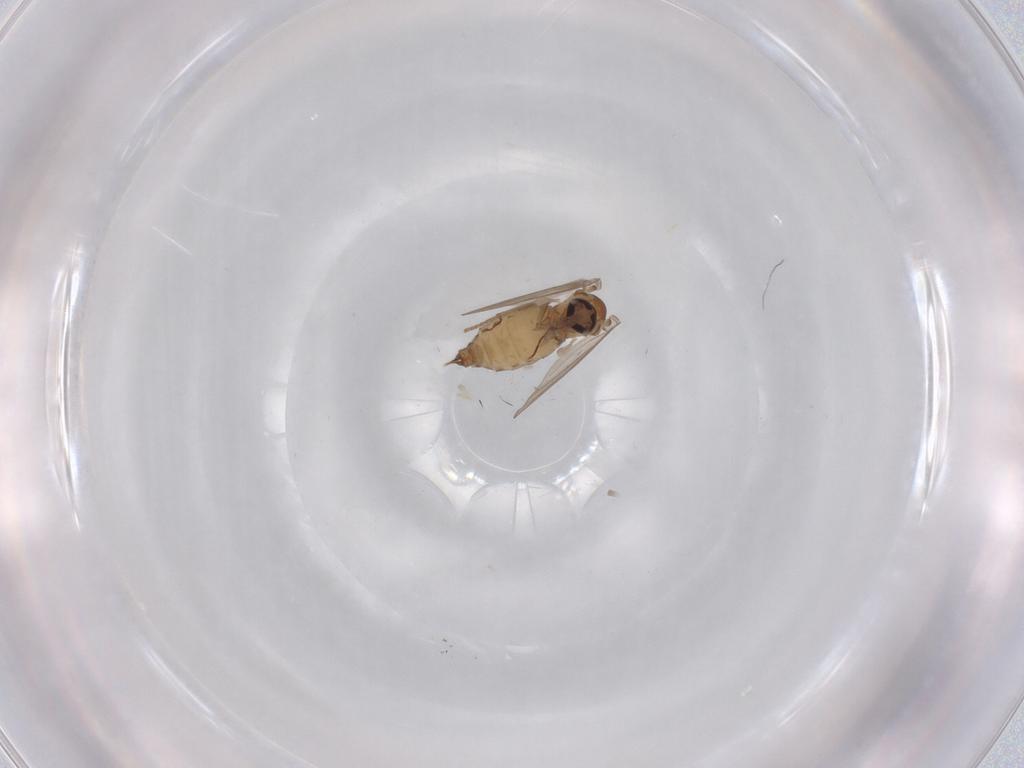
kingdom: Animalia
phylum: Arthropoda
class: Insecta
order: Diptera
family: Psychodidae
